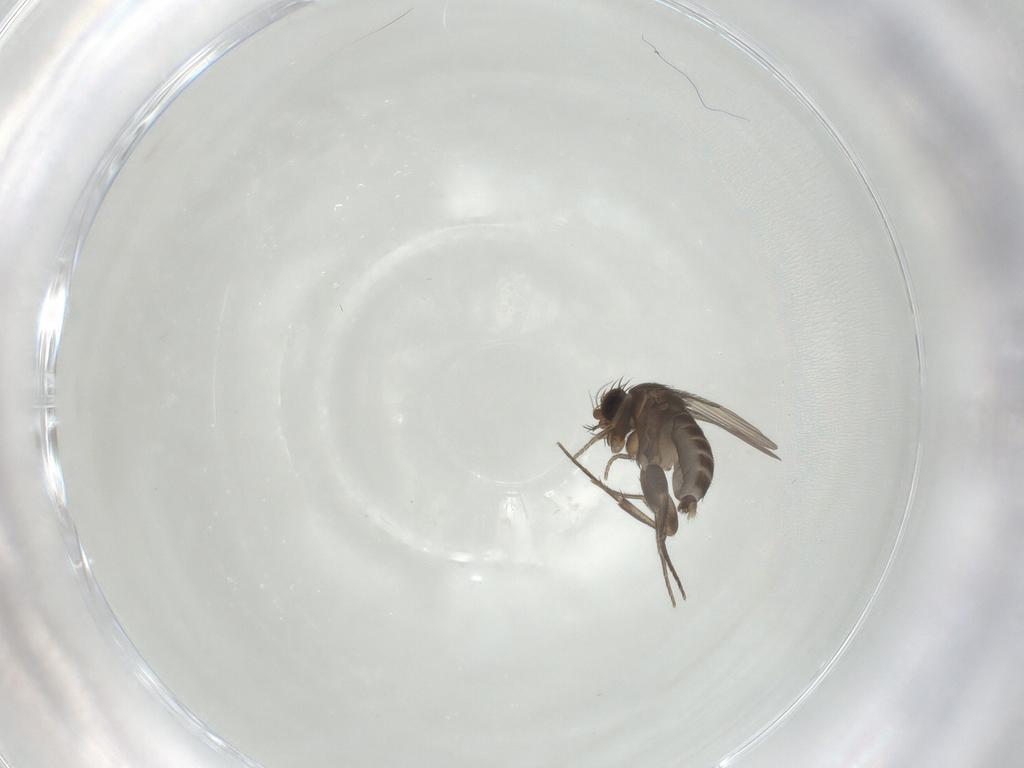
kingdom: Animalia
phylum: Arthropoda
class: Insecta
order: Diptera
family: Phoridae
